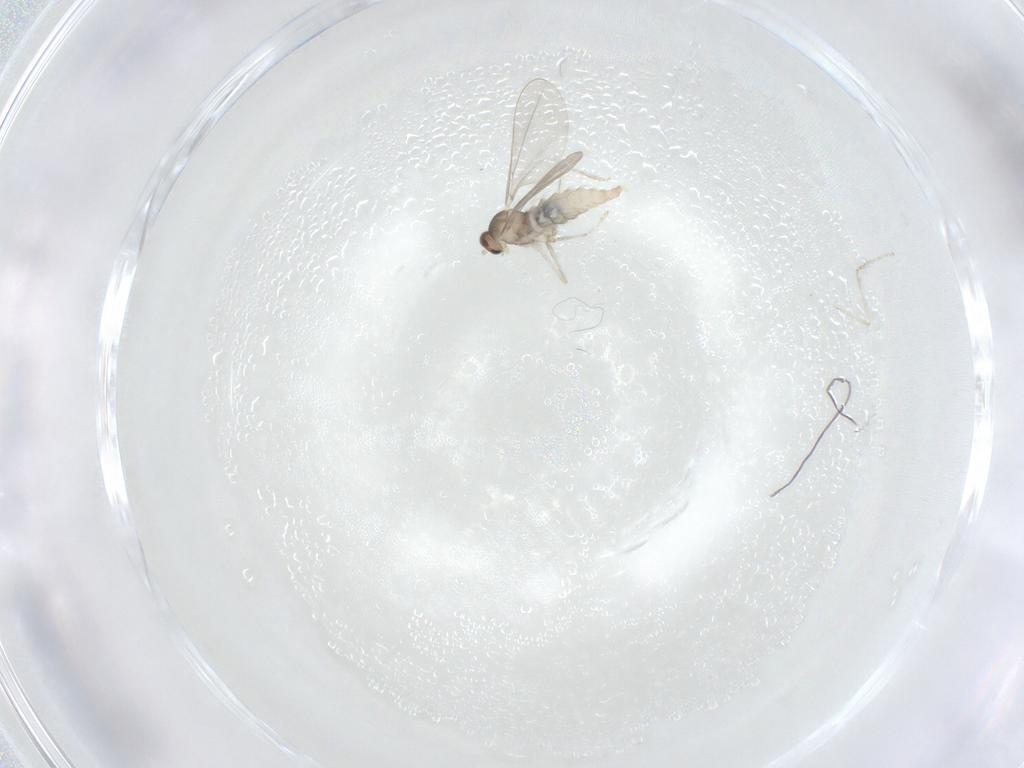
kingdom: Animalia
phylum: Arthropoda
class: Insecta
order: Diptera
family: Cecidomyiidae
